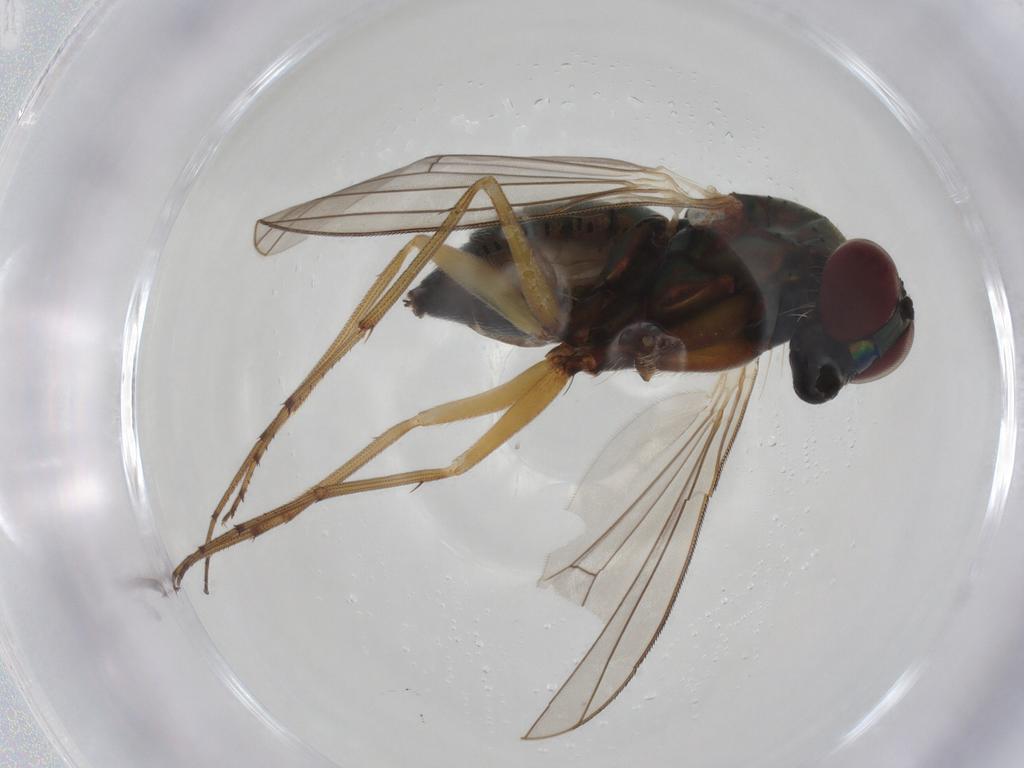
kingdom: Animalia
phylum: Arthropoda
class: Insecta
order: Diptera
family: Dolichopodidae
